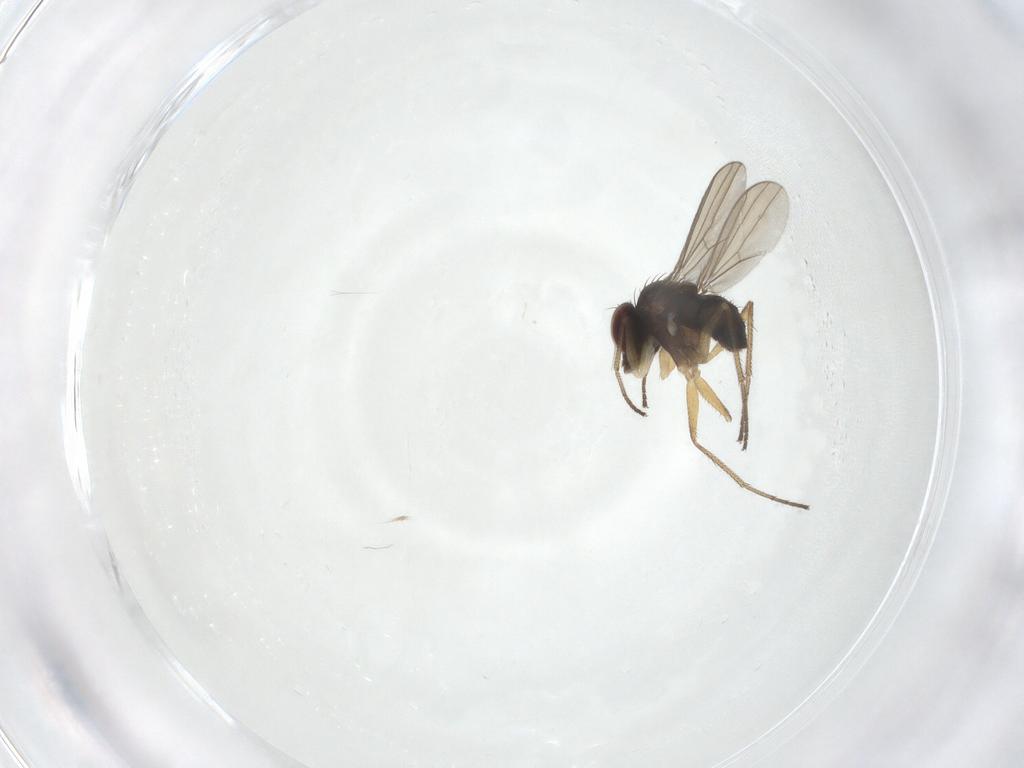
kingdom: Animalia
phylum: Arthropoda
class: Insecta
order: Diptera
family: Dolichopodidae
